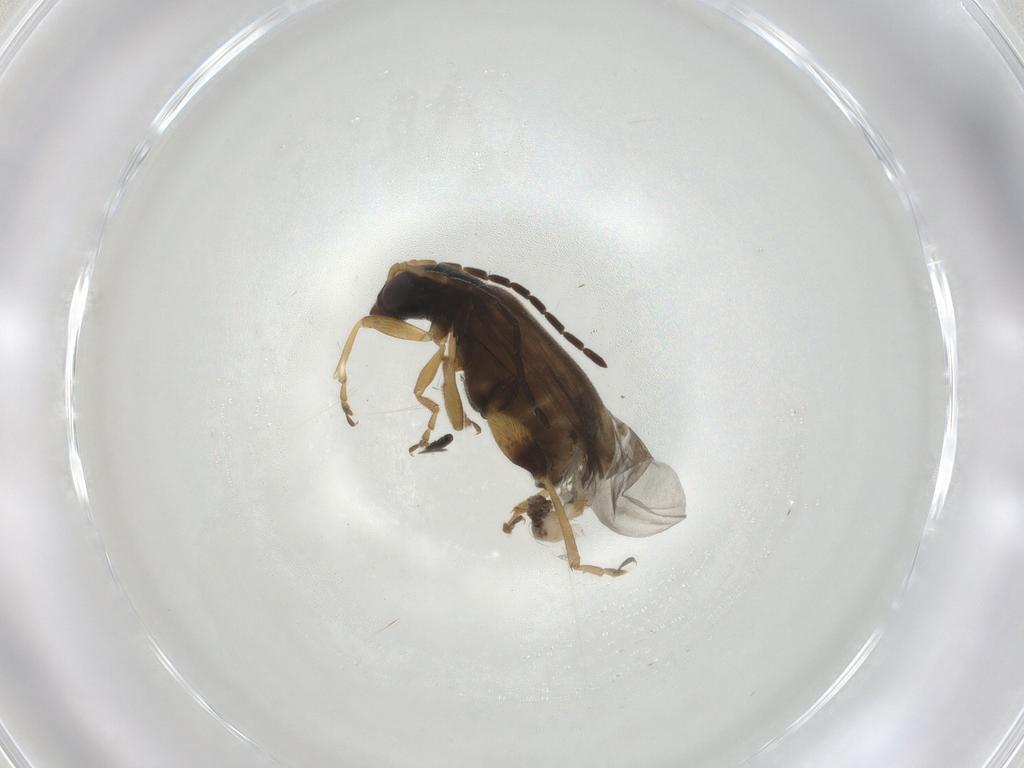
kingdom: Animalia
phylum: Arthropoda
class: Insecta
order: Coleoptera
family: Chrysomelidae
